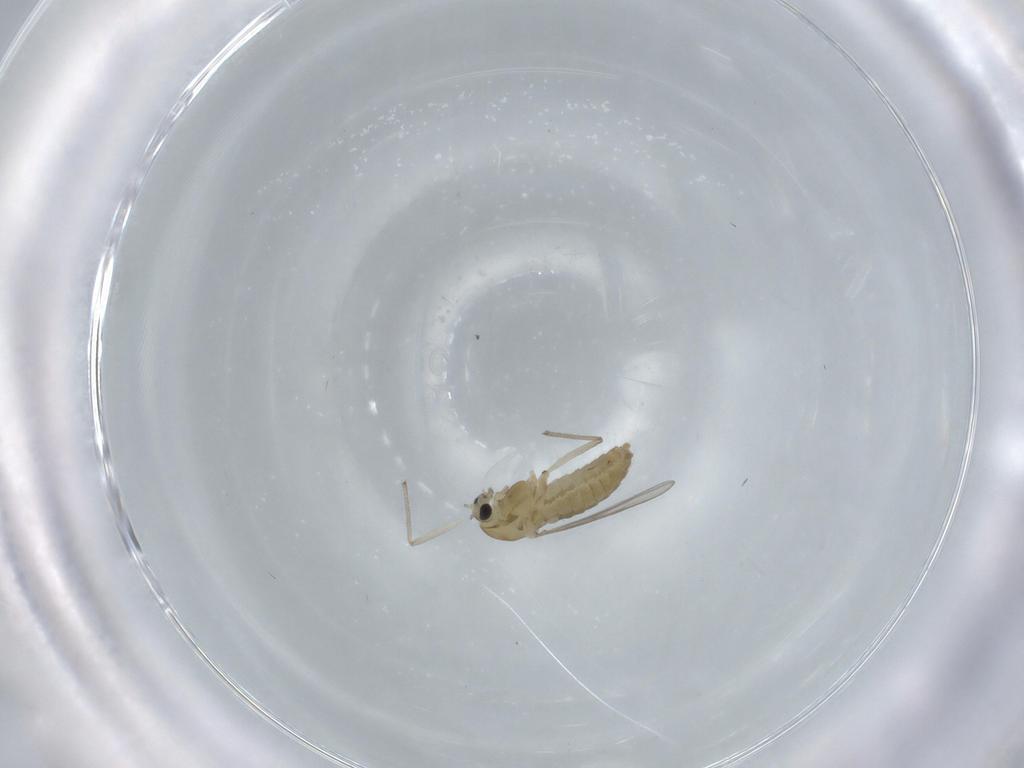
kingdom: Animalia
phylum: Arthropoda
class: Insecta
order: Diptera
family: Chironomidae
